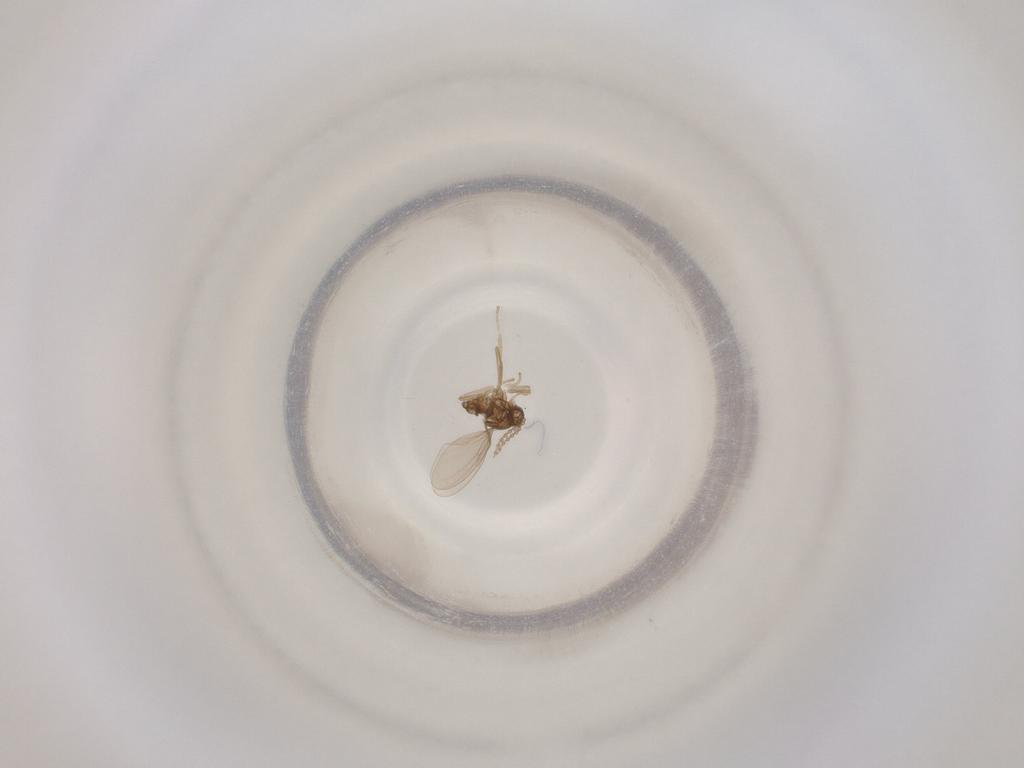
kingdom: Animalia
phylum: Arthropoda
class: Insecta
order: Diptera
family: Cecidomyiidae
